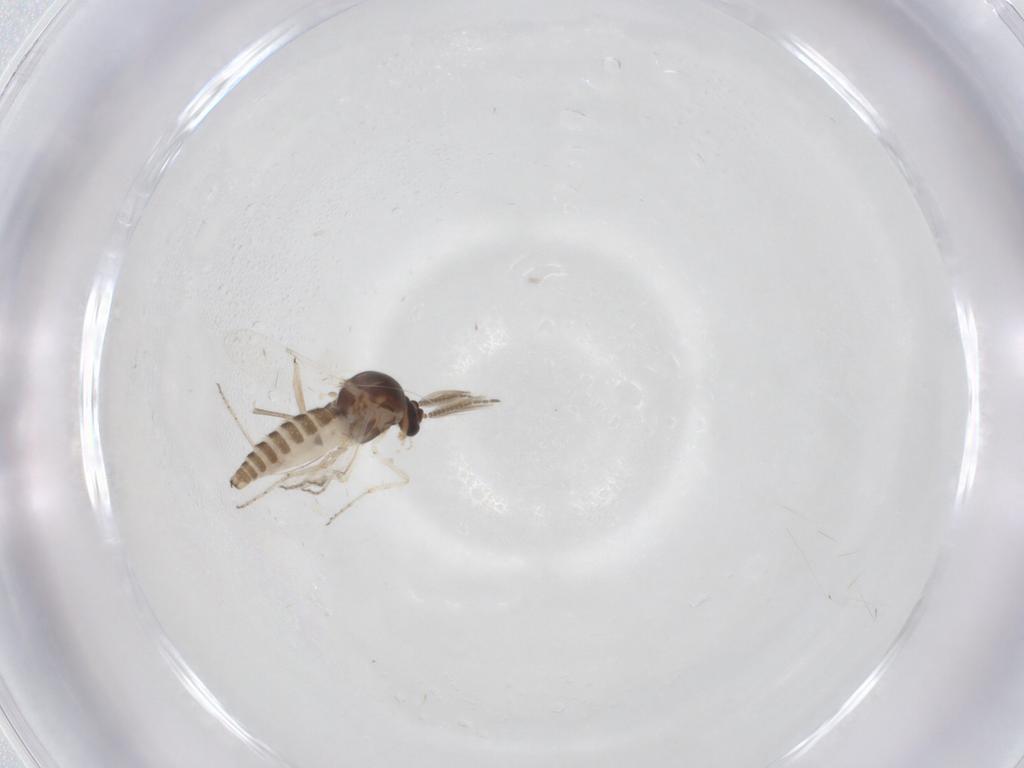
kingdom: Animalia
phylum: Arthropoda
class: Insecta
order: Diptera
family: Ceratopogonidae
